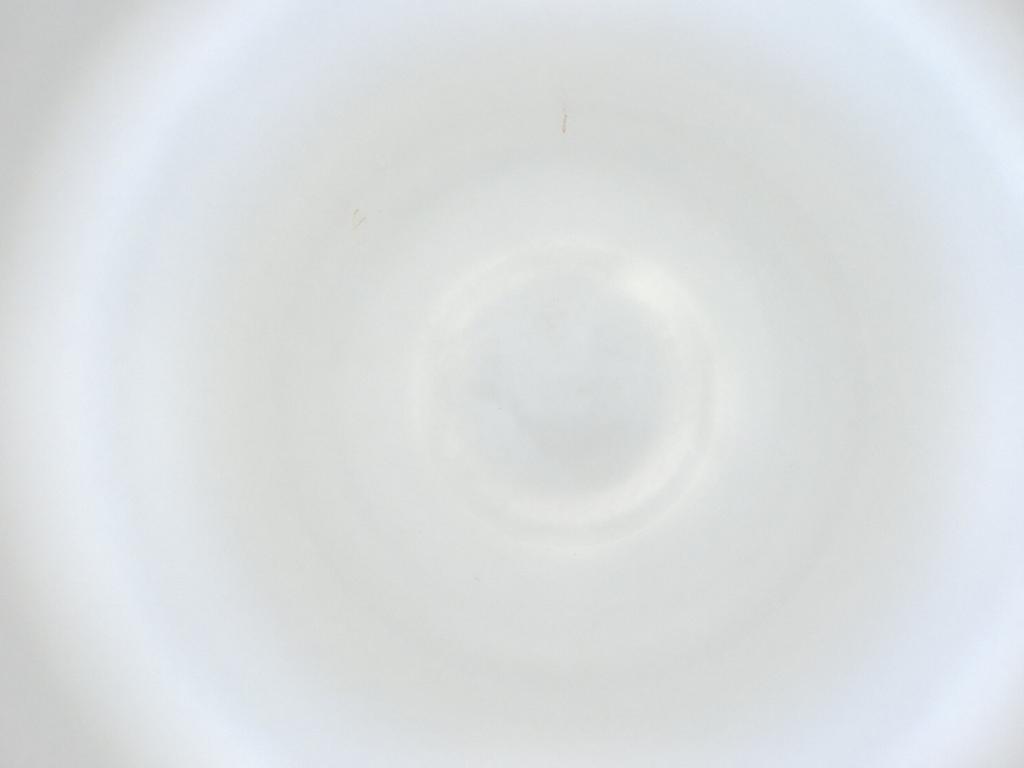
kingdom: Animalia
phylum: Arthropoda
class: Insecta
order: Diptera
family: Cecidomyiidae
